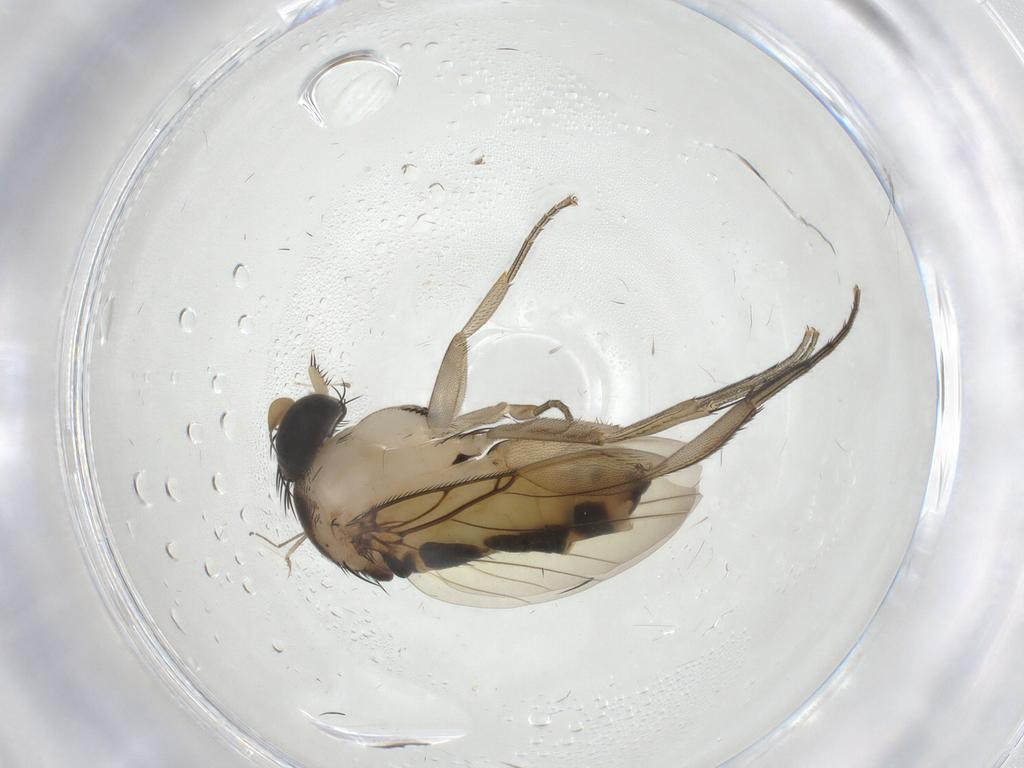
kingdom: Animalia
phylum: Arthropoda
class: Insecta
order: Diptera
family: Phoridae
